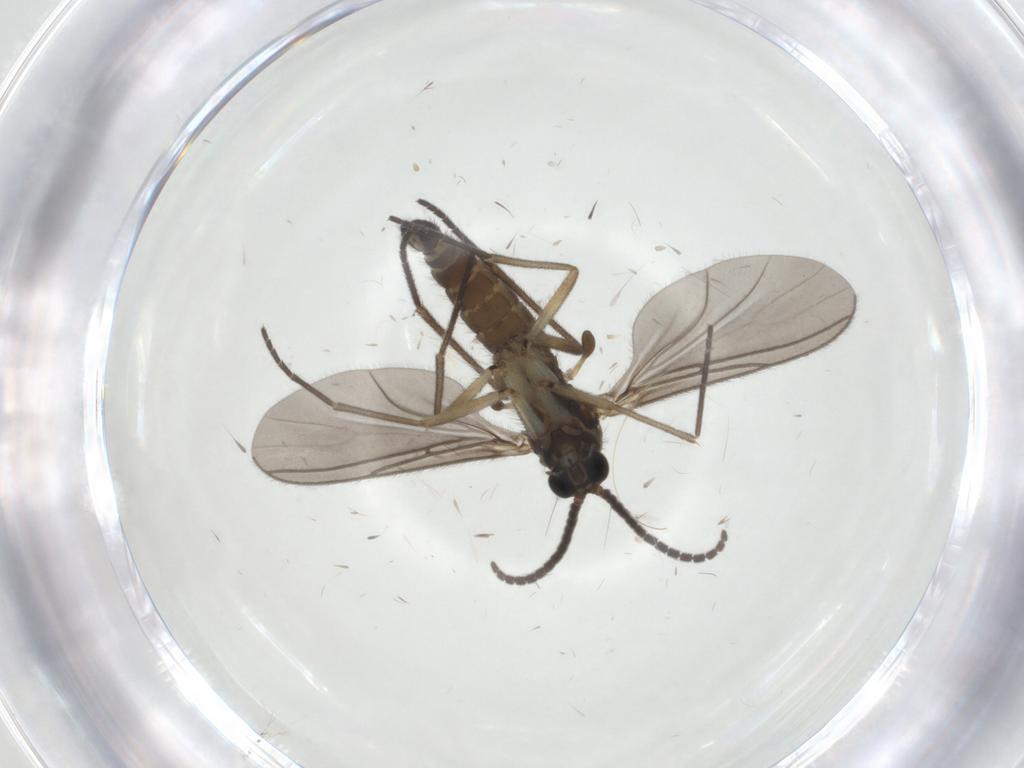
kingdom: Animalia
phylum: Arthropoda
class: Insecta
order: Diptera
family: Sciaridae
